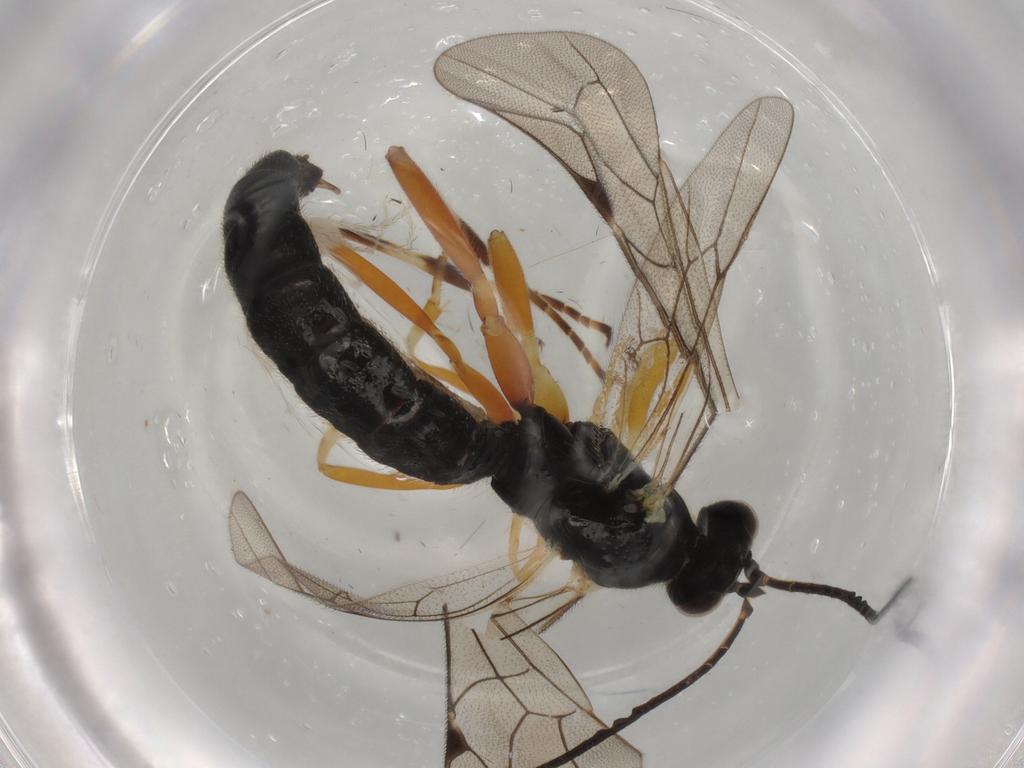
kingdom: Animalia
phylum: Arthropoda
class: Insecta
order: Hymenoptera
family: Ichneumonidae
